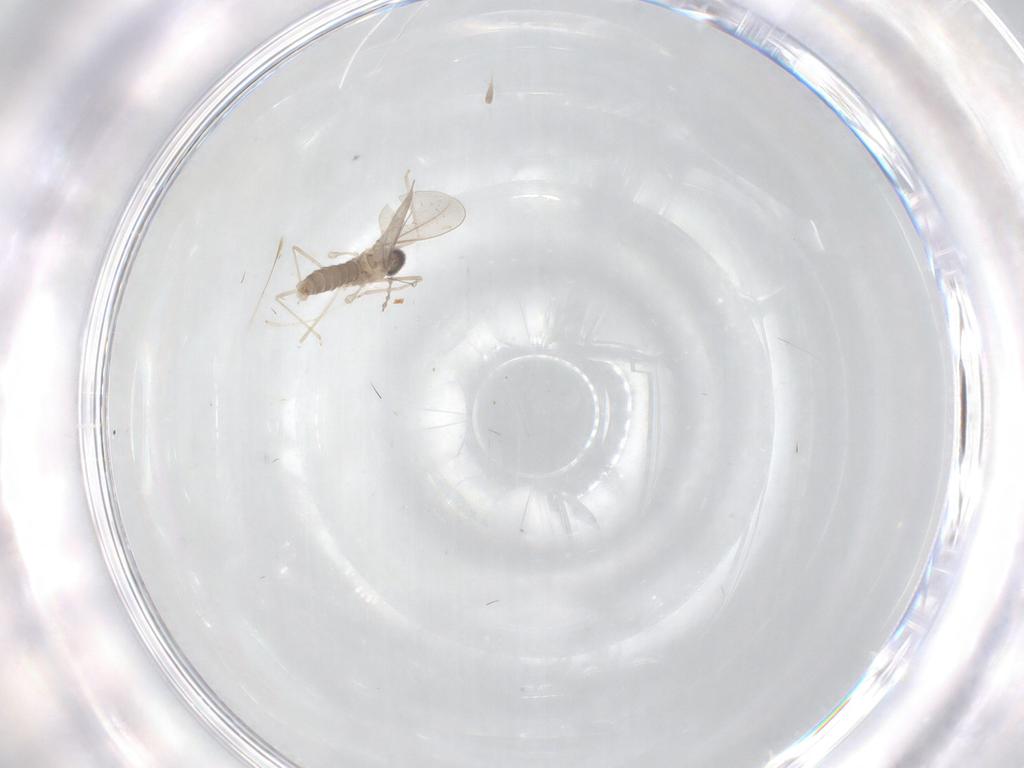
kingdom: Animalia
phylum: Arthropoda
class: Insecta
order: Diptera
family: Cecidomyiidae
